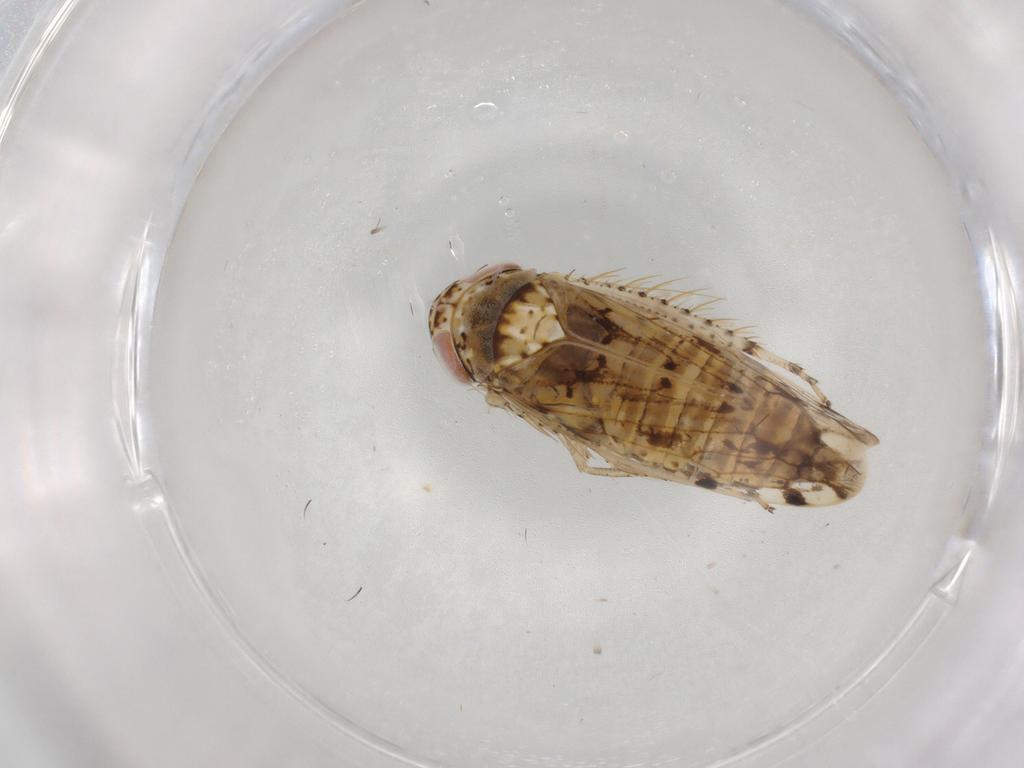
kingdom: Animalia
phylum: Arthropoda
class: Insecta
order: Hemiptera
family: Cicadellidae
